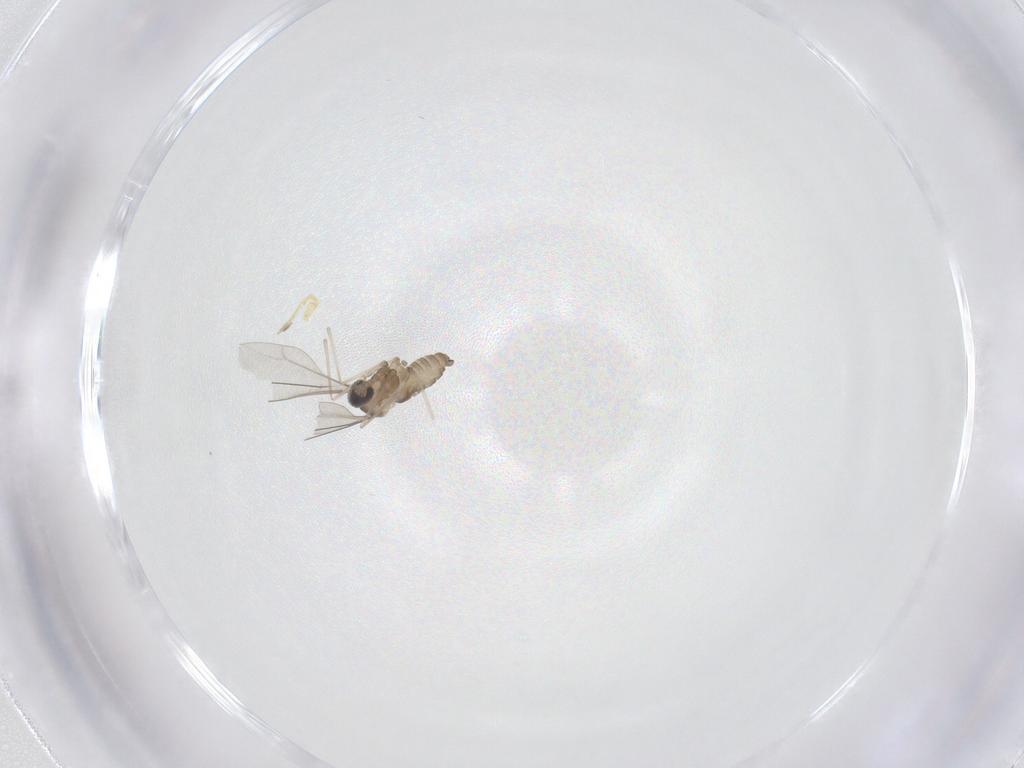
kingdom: Animalia
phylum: Arthropoda
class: Insecta
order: Diptera
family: Cecidomyiidae
